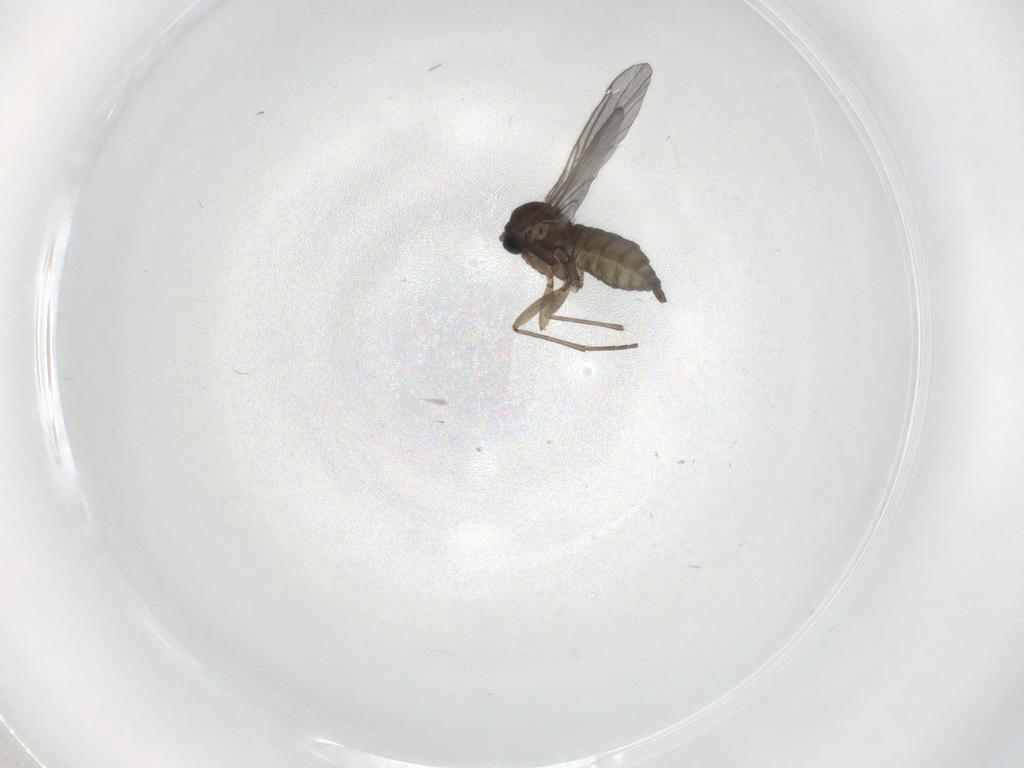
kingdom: Animalia
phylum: Arthropoda
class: Insecta
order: Diptera
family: Sciaridae
